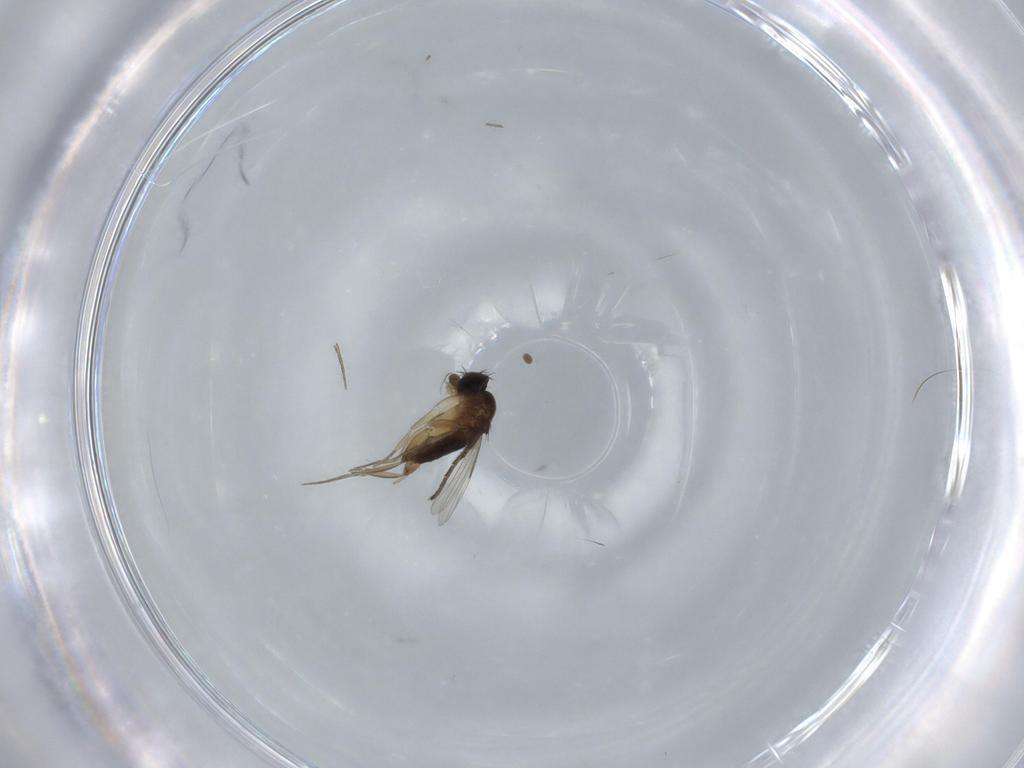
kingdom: Animalia
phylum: Arthropoda
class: Insecta
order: Diptera
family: Phoridae
